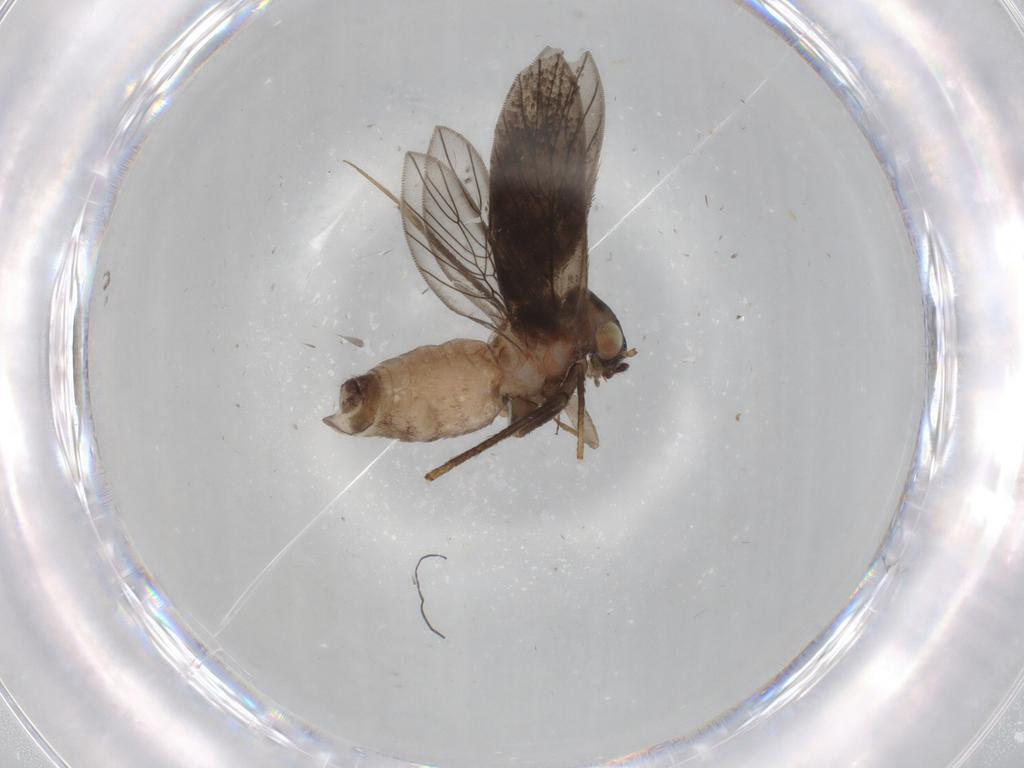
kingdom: Animalia
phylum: Arthropoda
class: Insecta
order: Psocodea
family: Lepidopsocidae
